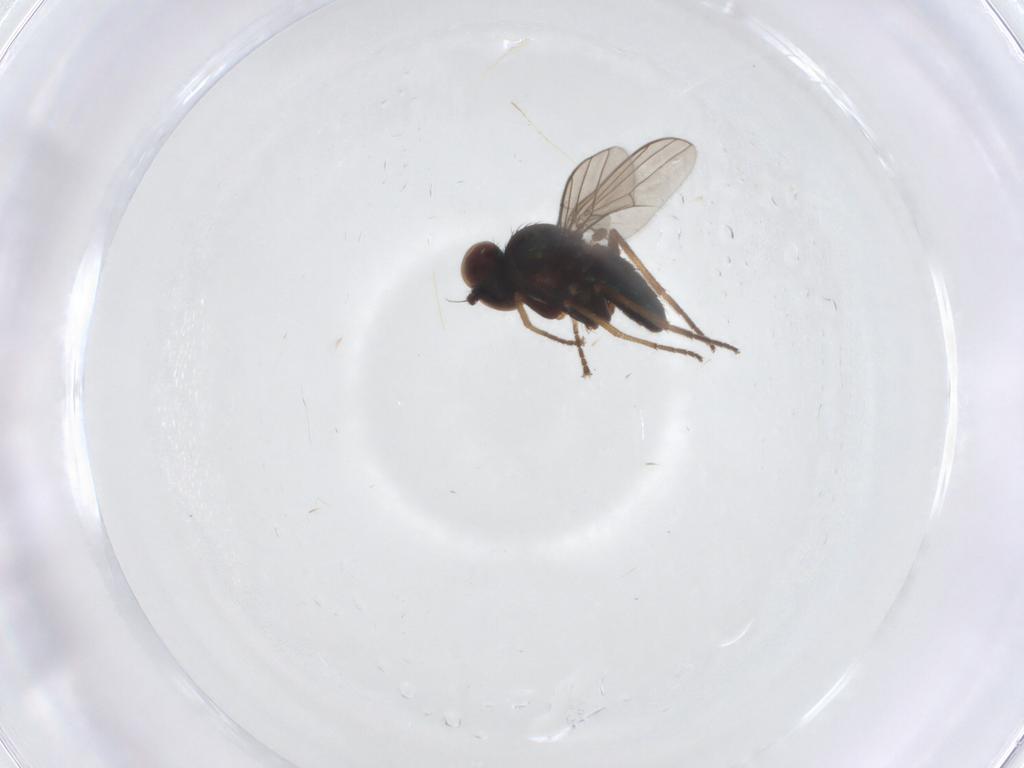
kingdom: Animalia
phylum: Arthropoda
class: Insecta
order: Diptera
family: Dolichopodidae
